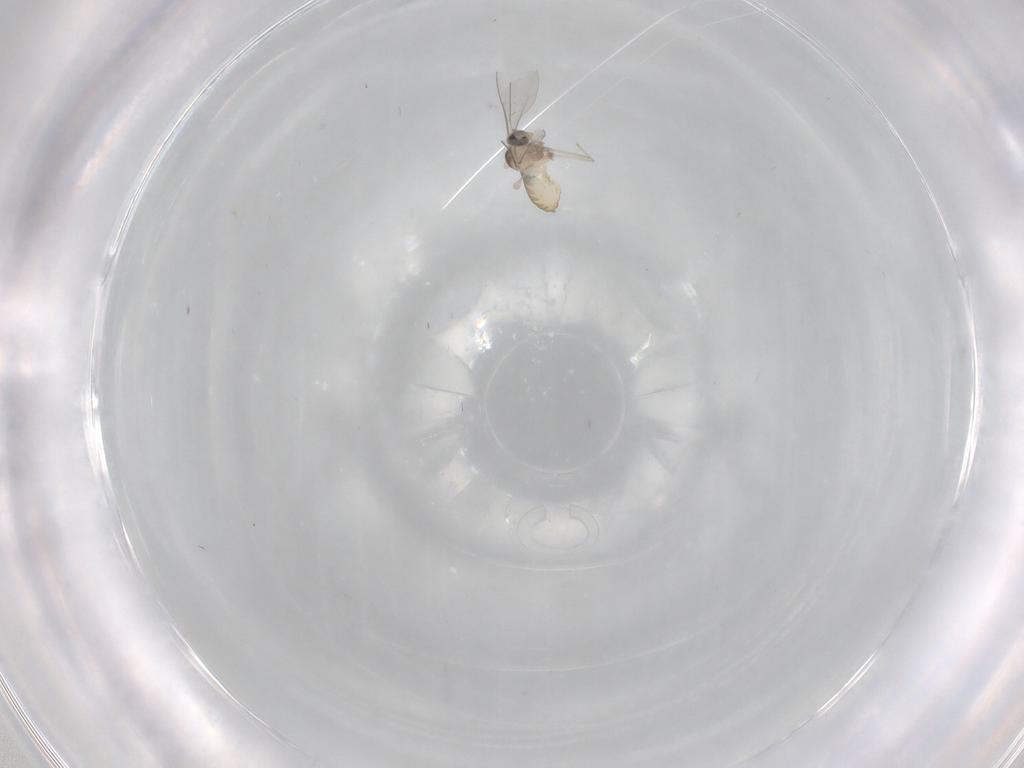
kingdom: Animalia
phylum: Arthropoda
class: Insecta
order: Diptera
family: Cecidomyiidae
